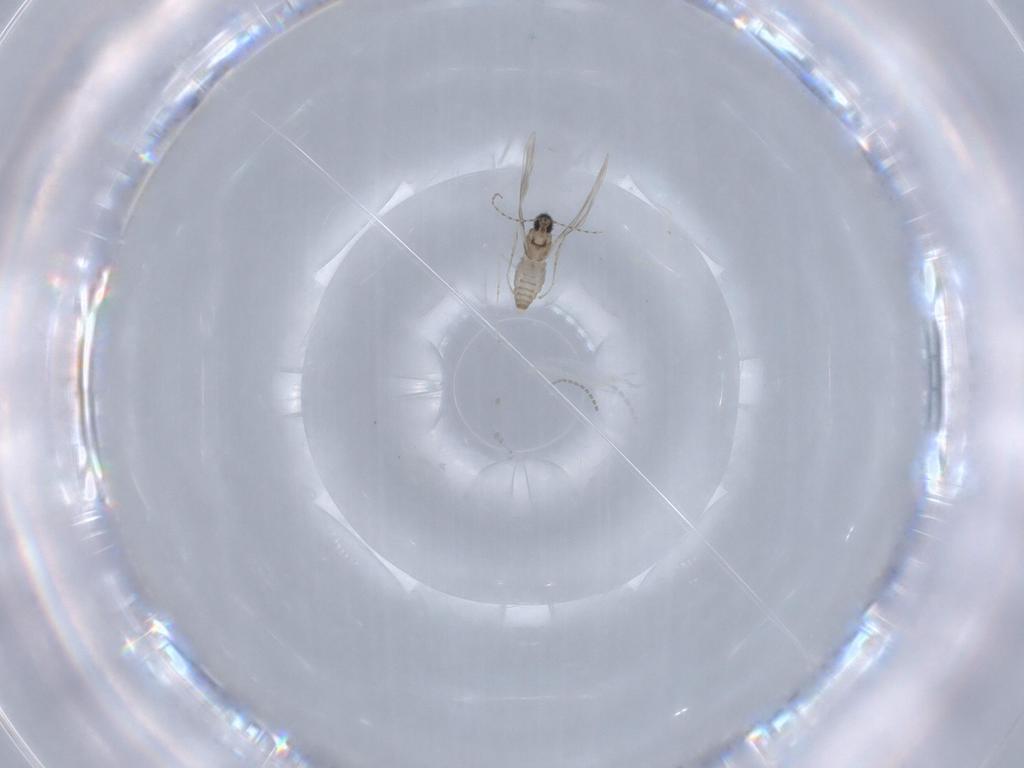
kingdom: Animalia
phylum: Arthropoda
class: Insecta
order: Diptera
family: Cecidomyiidae
